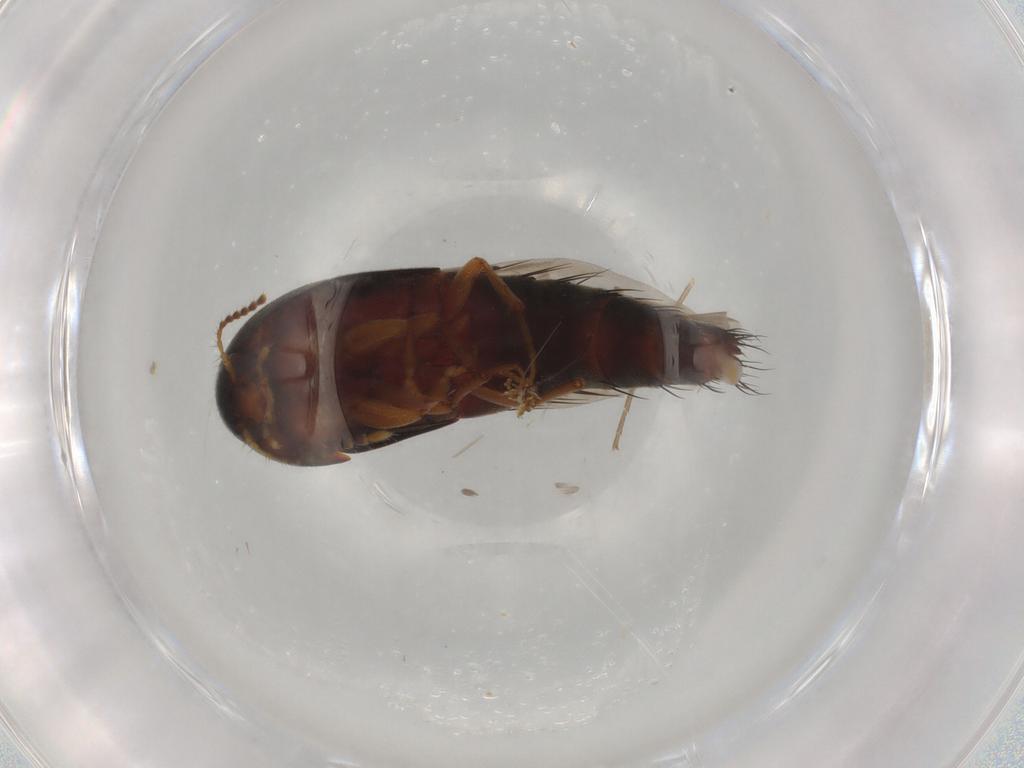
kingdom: Animalia
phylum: Arthropoda
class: Insecta
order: Coleoptera
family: Staphylinidae
